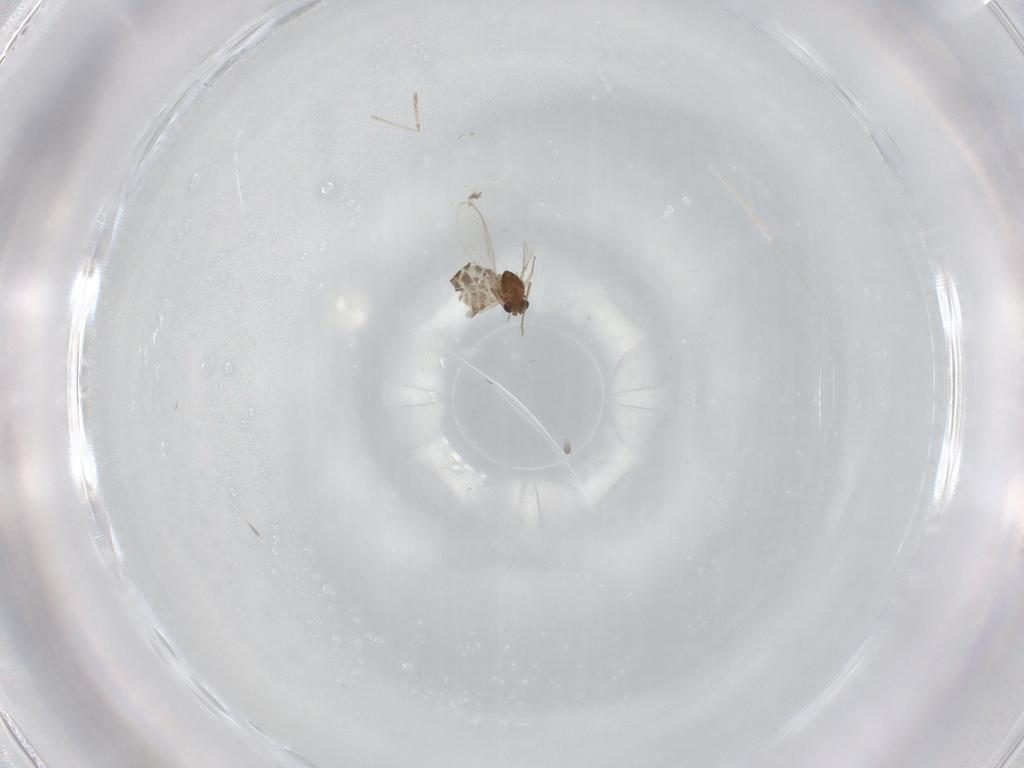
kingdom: Animalia
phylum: Arthropoda
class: Insecta
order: Diptera
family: Chironomidae
